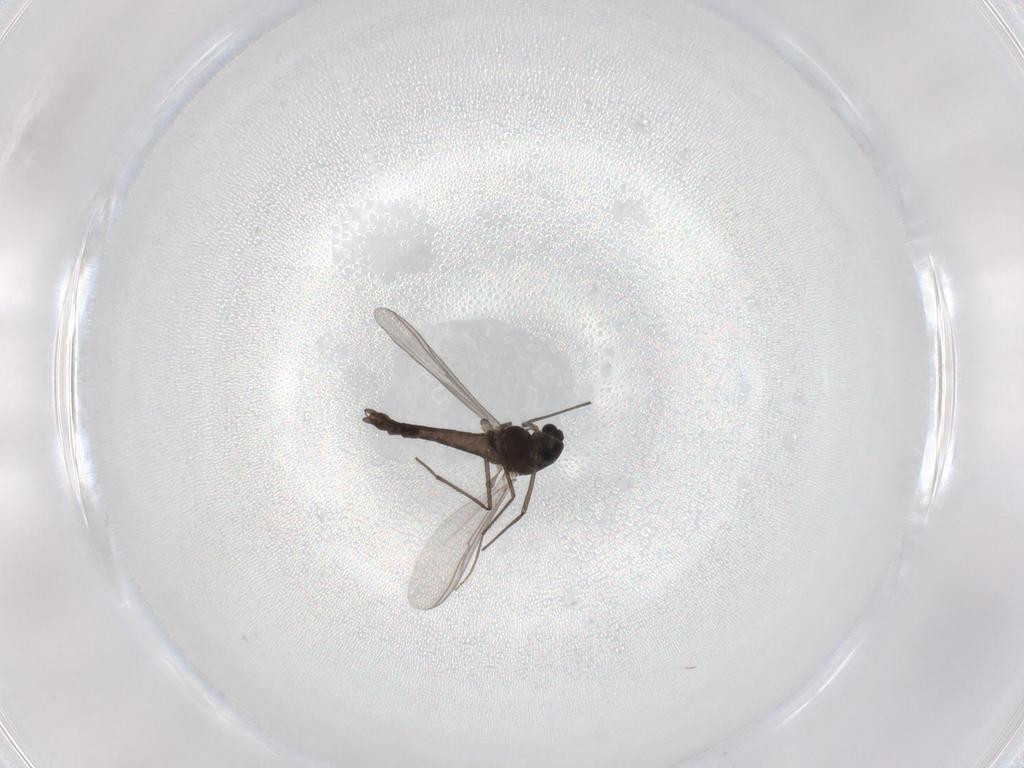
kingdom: Animalia
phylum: Arthropoda
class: Insecta
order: Diptera
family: Chironomidae
